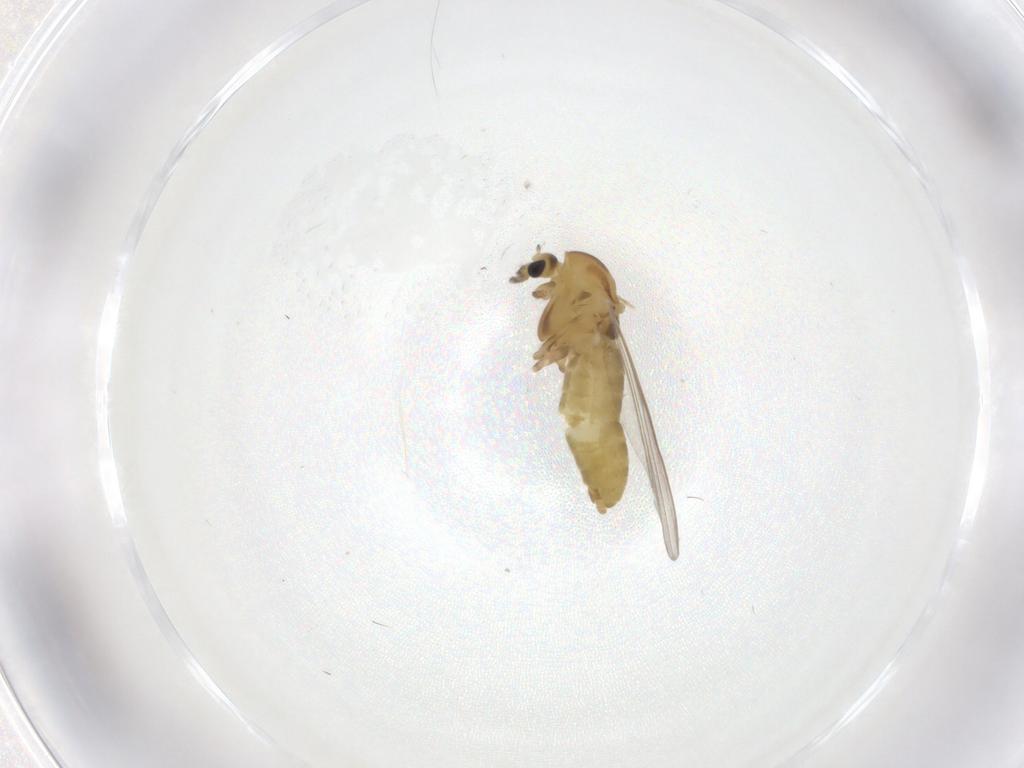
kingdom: Animalia
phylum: Arthropoda
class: Insecta
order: Diptera
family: Chironomidae
